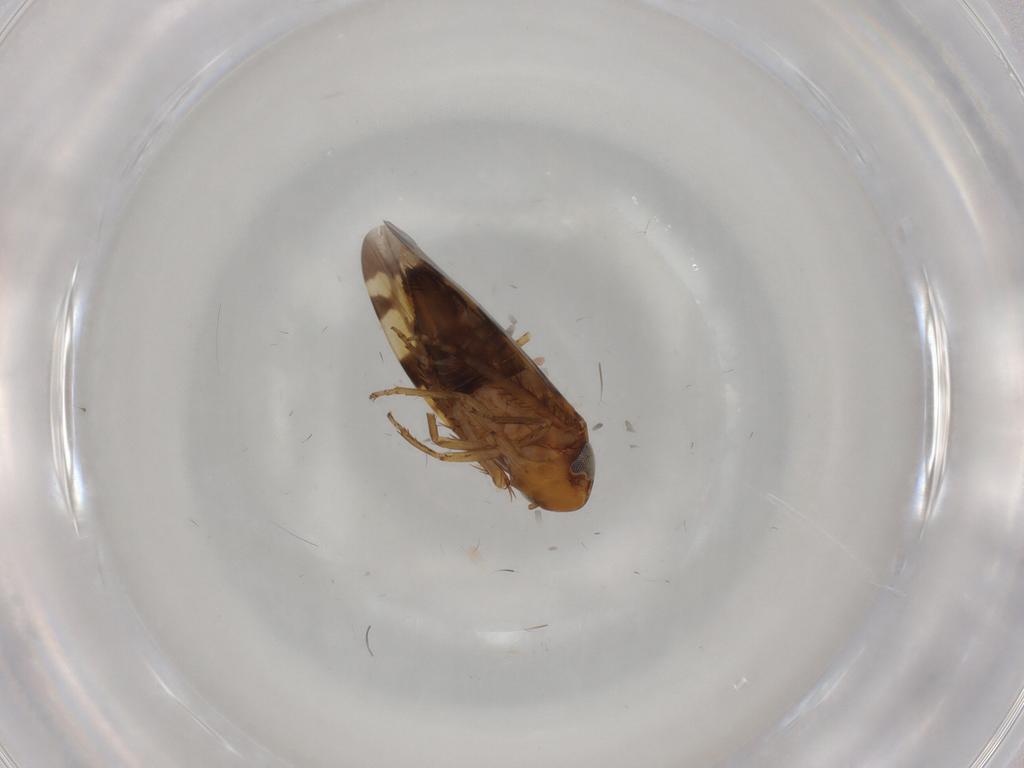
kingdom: Animalia
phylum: Arthropoda
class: Insecta
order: Hemiptera
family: Cicadellidae
